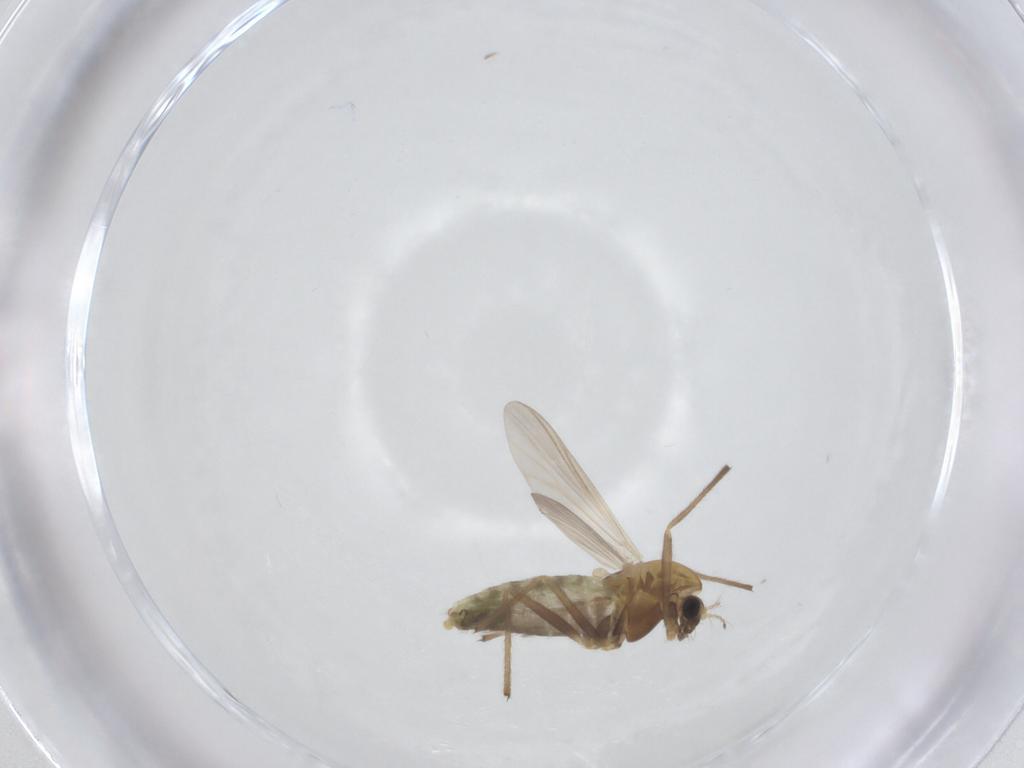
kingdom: Animalia
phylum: Arthropoda
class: Insecta
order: Diptera
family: Chironomidae
